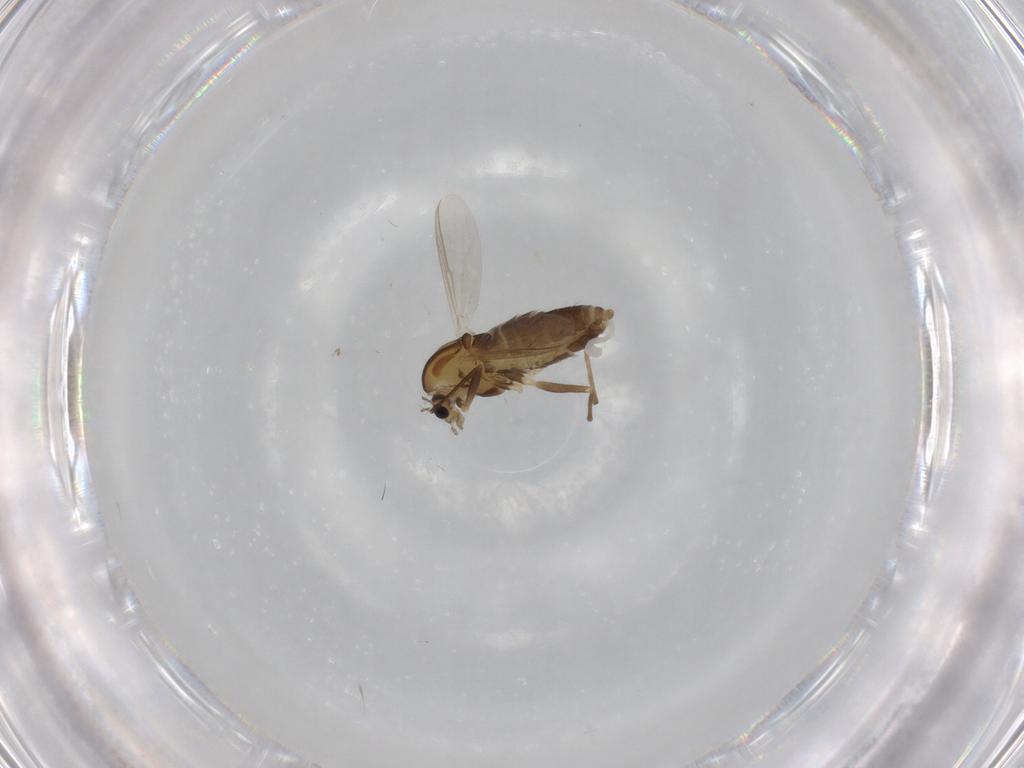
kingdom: Animalia
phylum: Arthropoda
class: Insecta
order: Diptera
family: Chironomidae
